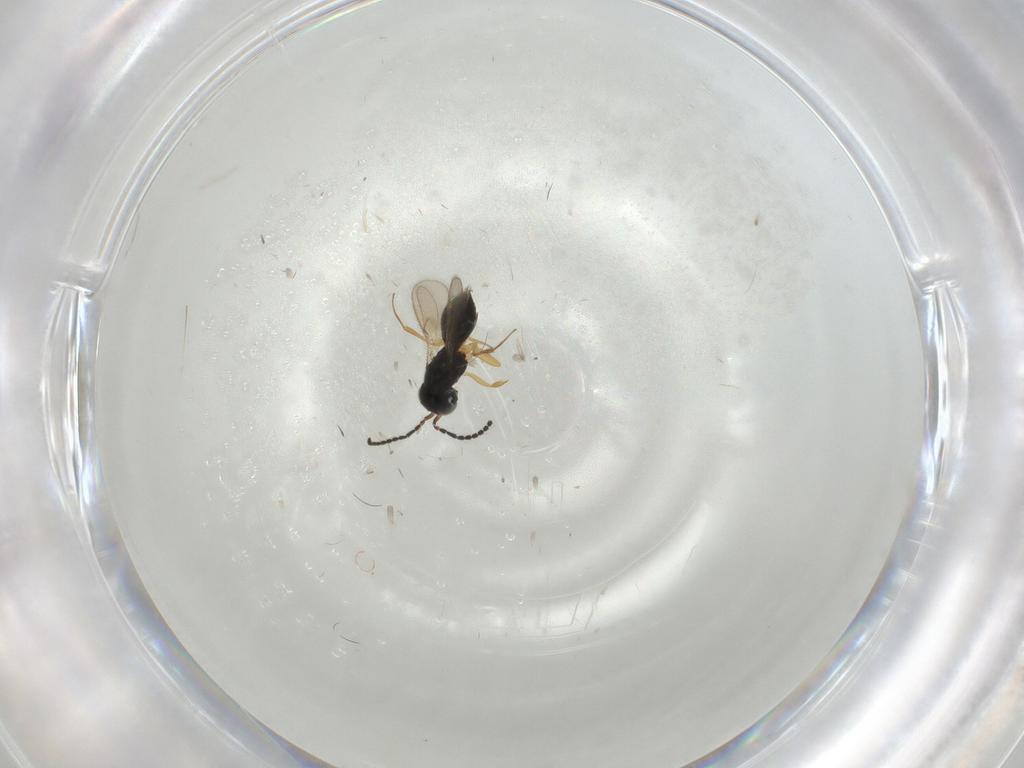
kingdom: Animalia
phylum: Arthropoda
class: Insecta
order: Hymenoptera
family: Scelionidae
